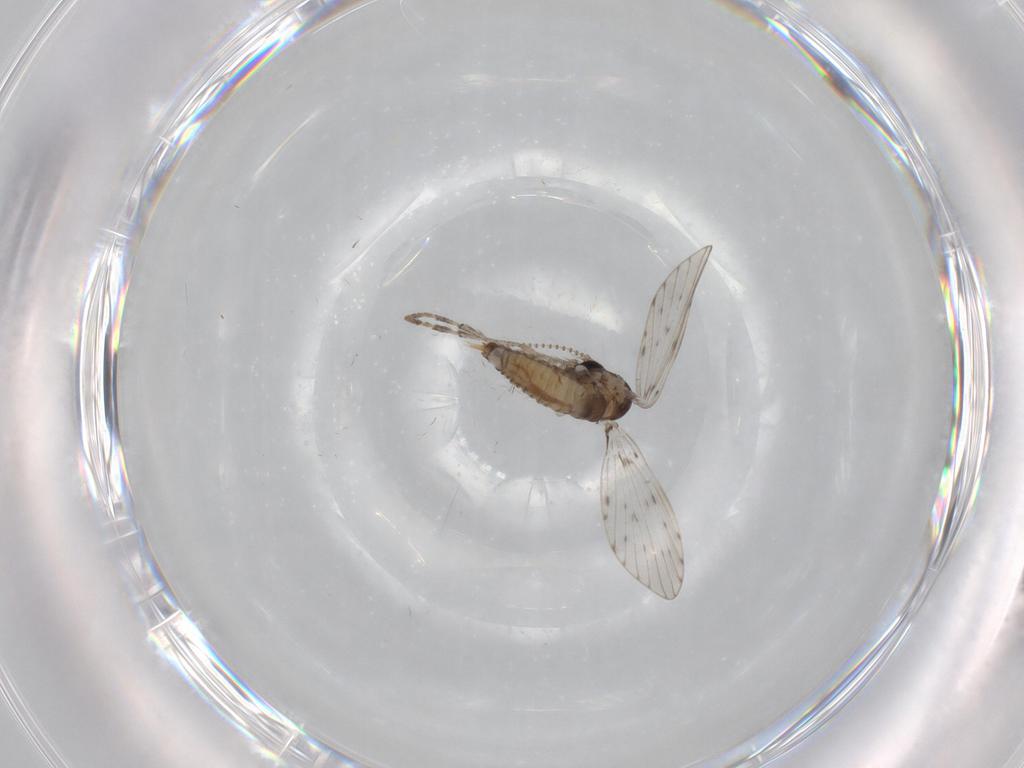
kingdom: Animalia
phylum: Arthropoda
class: Insecta
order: Diptera
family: Psychodidae
